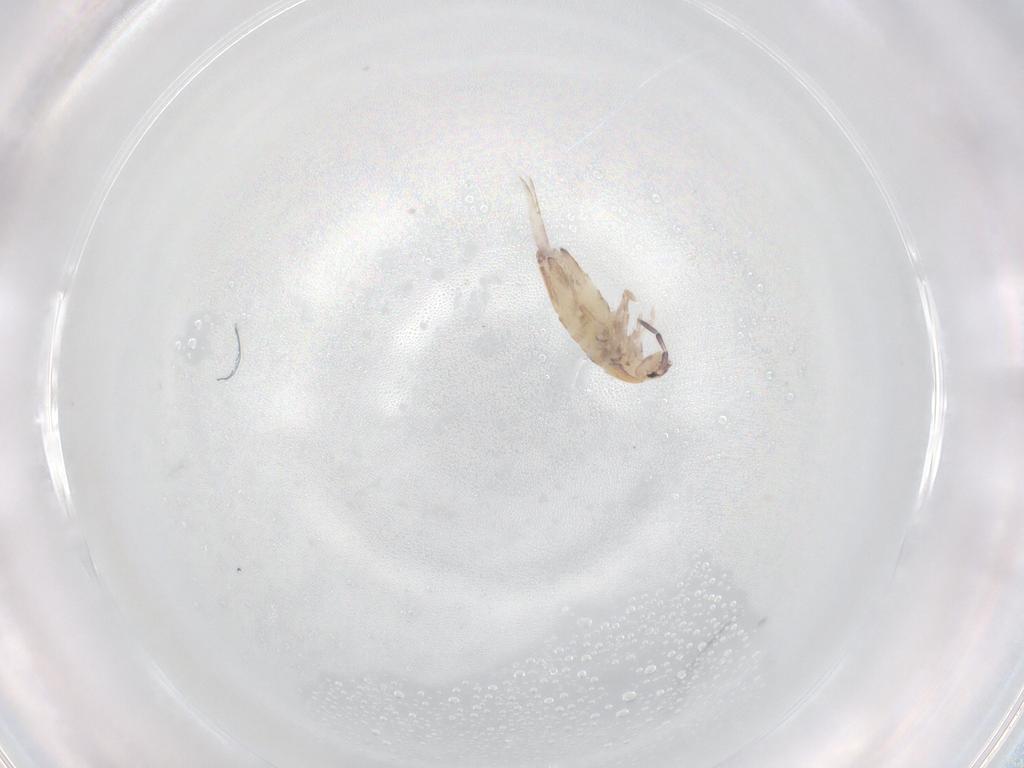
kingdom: Animalia
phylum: Arthropoda
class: Collembola
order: Entomobryomorpha
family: Entomobryidae
